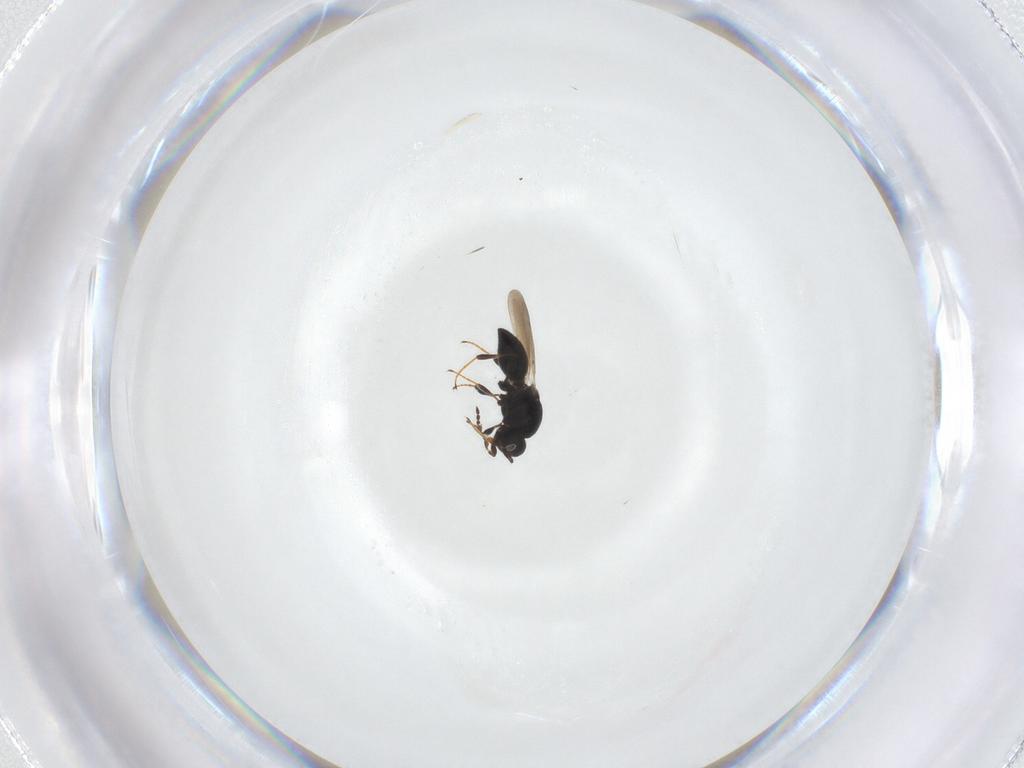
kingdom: Animalia
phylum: Arthropoda
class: Insecta
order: Hymenoptera
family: Platygastridae
